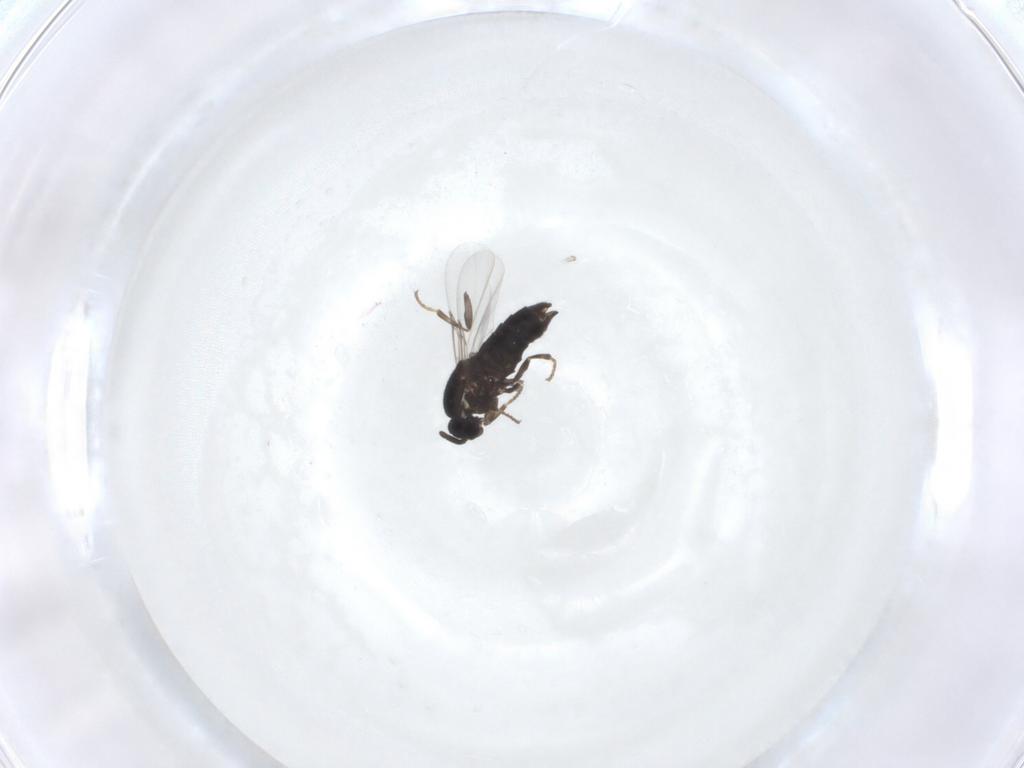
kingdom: Animalia
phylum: Arthropoda
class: Insecta
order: Diptera
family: Scatopsidae
